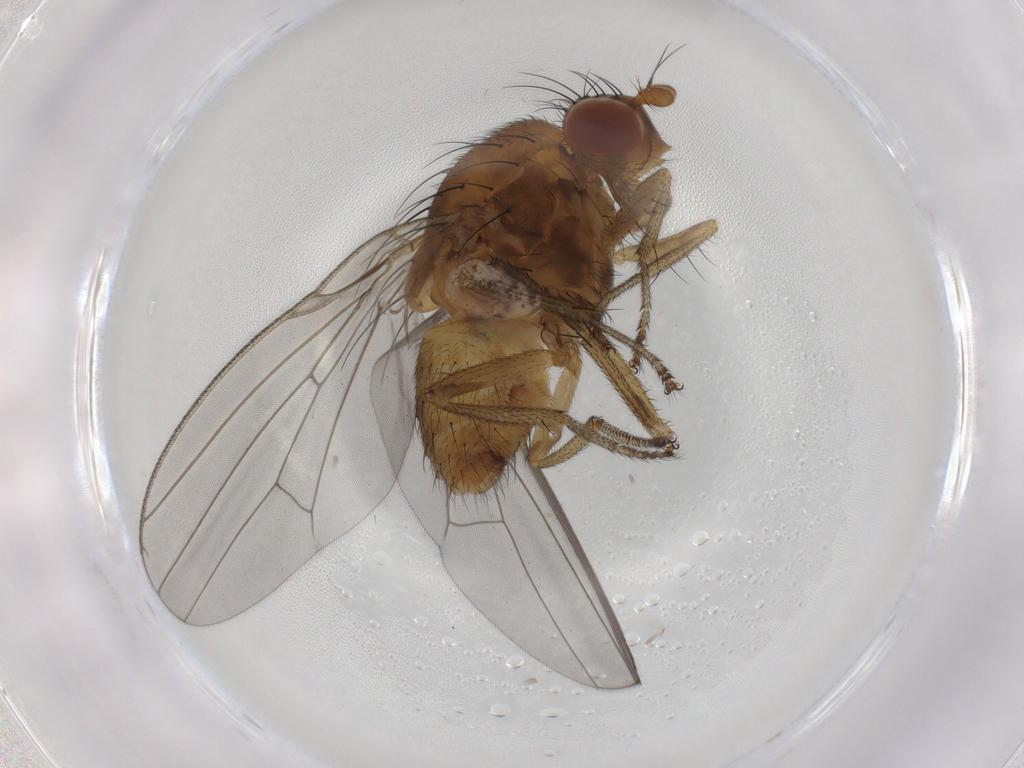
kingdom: Animalia
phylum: Arthropoda
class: Insecta
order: Diptera
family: Lauxaniidae
